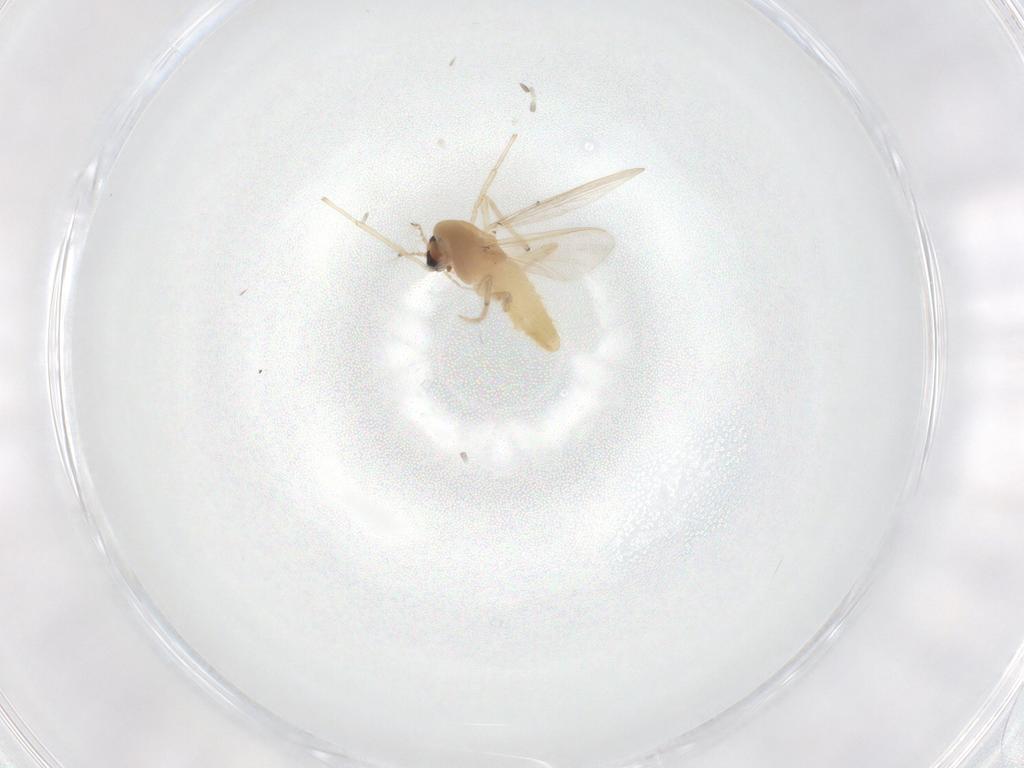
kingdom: Animalia
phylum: Arthropoda
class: Insecta
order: Diptera
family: Chironomidae
